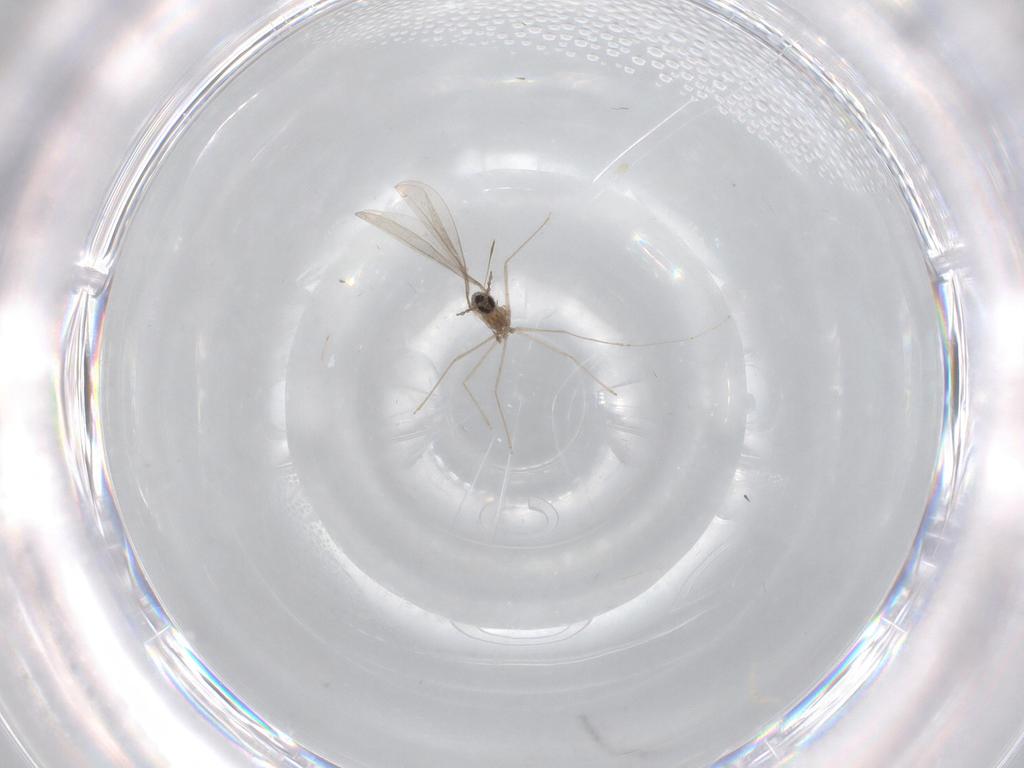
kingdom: Animalia
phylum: Arthropoda
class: Insecta
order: Diptera
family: Cecidomyiidae
